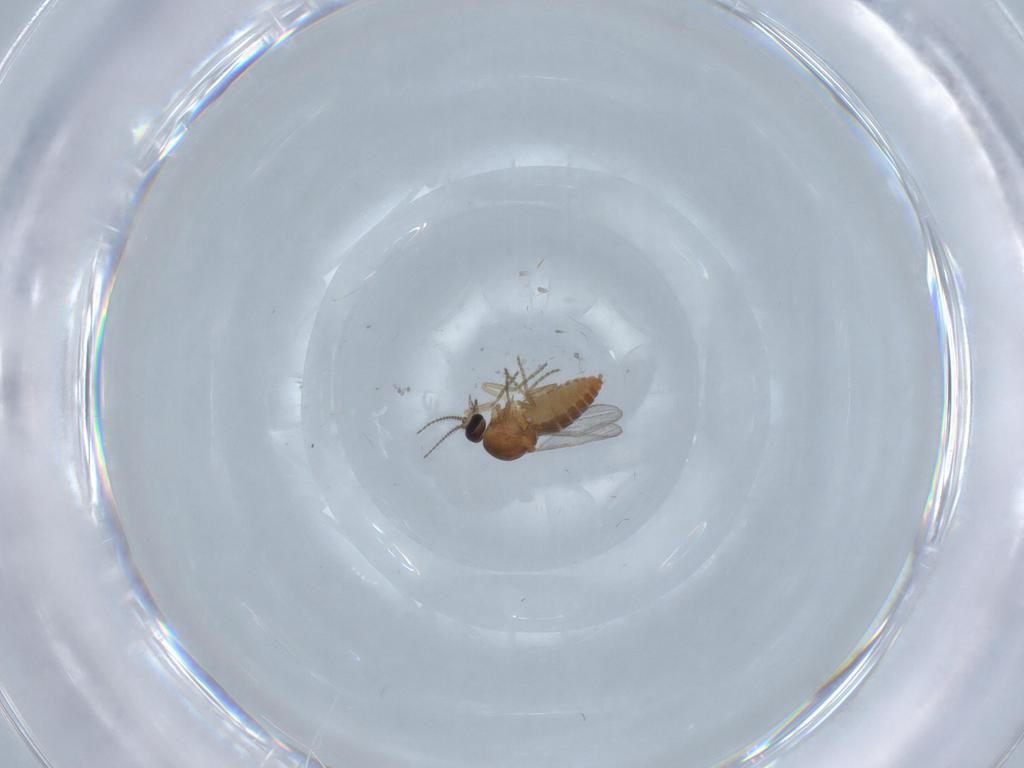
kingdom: Animalia
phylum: Arthropoda
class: Insecta
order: Diptera
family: Ceratopogonidae
